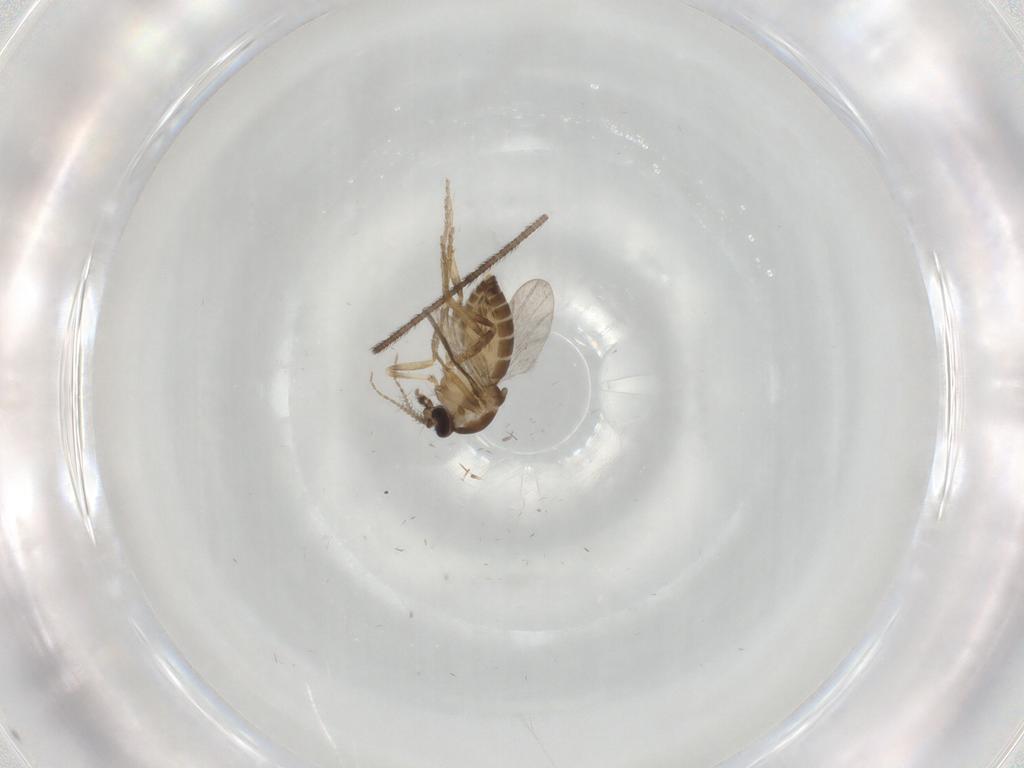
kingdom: Animalia
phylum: Arthropoda
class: Insecta
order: Diptera
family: Ceratopogonidae
